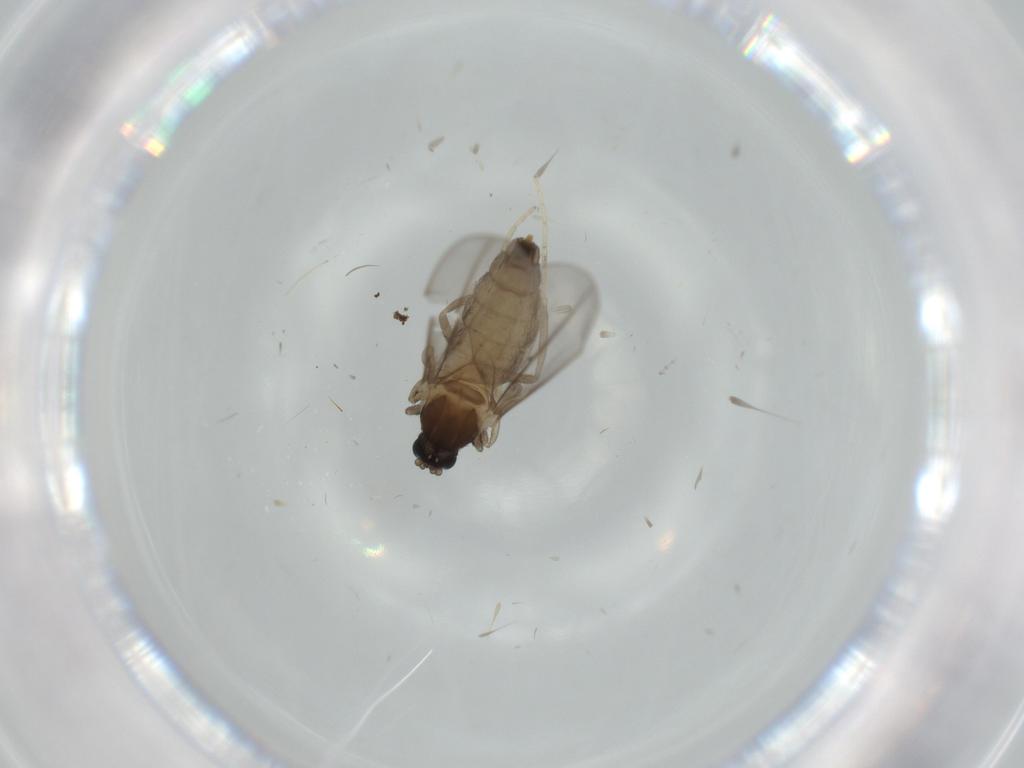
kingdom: Animalia
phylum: Arthropoda
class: Insecta
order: Diptera
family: Cecidomyiidae
